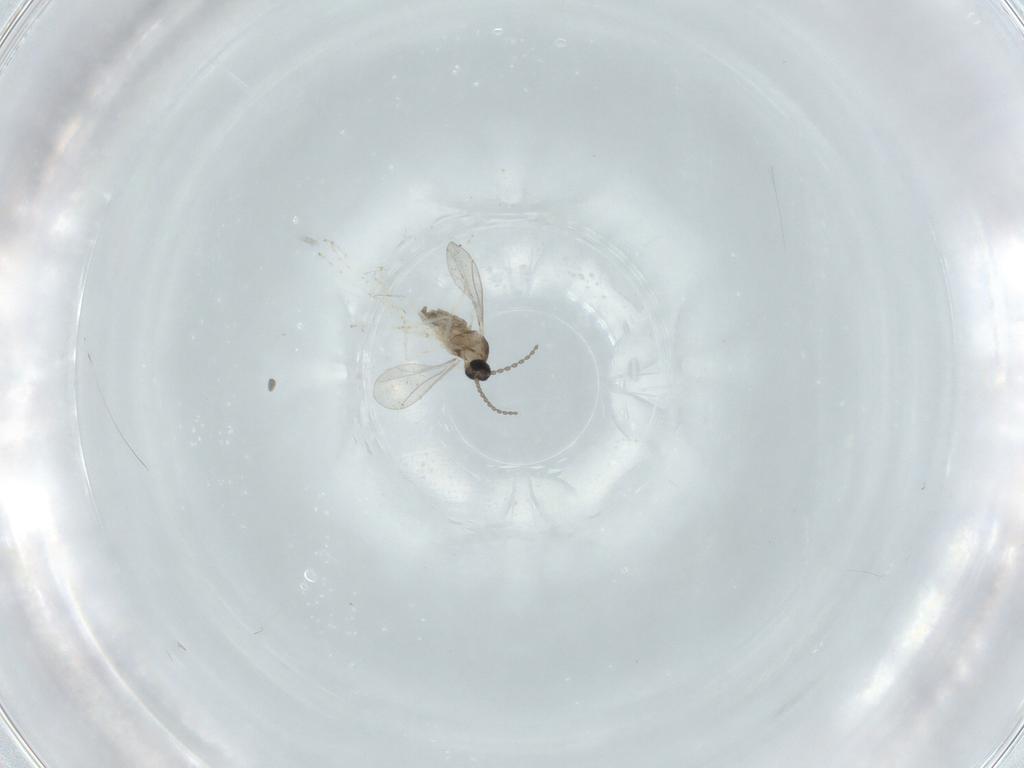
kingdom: Animalia
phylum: Arthropoda
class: Insecta
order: Diptera
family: Cecidomyiidae
